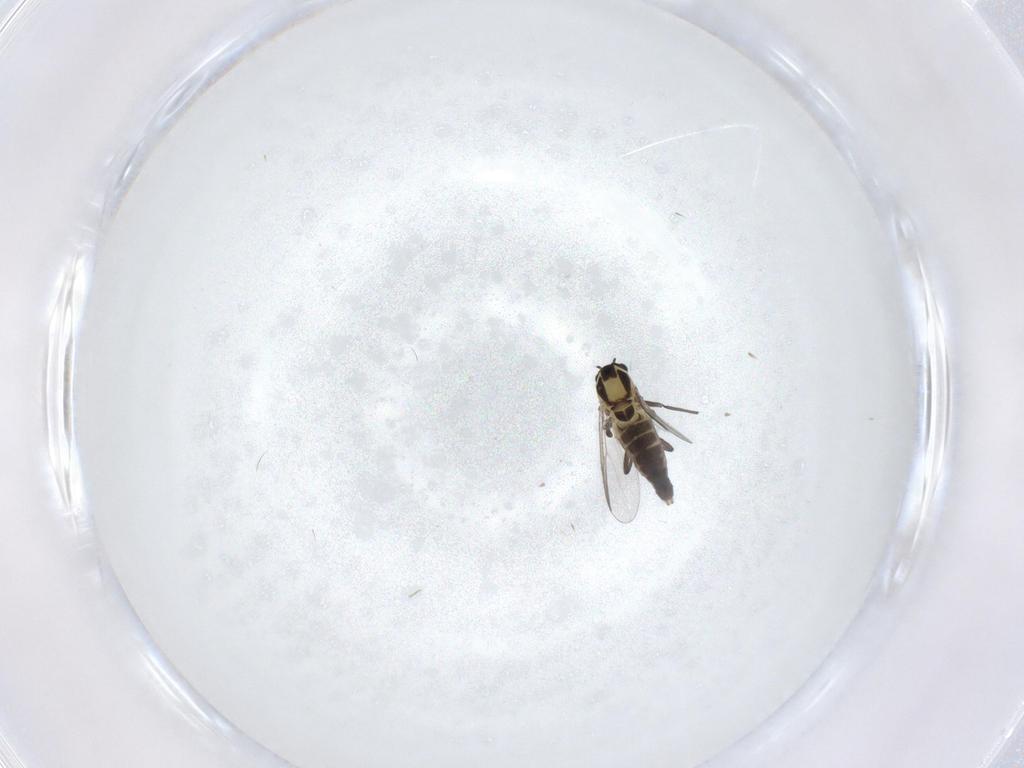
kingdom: Animalia
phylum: Arthropoda
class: Insecta
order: Diptera
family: Chironomidae
